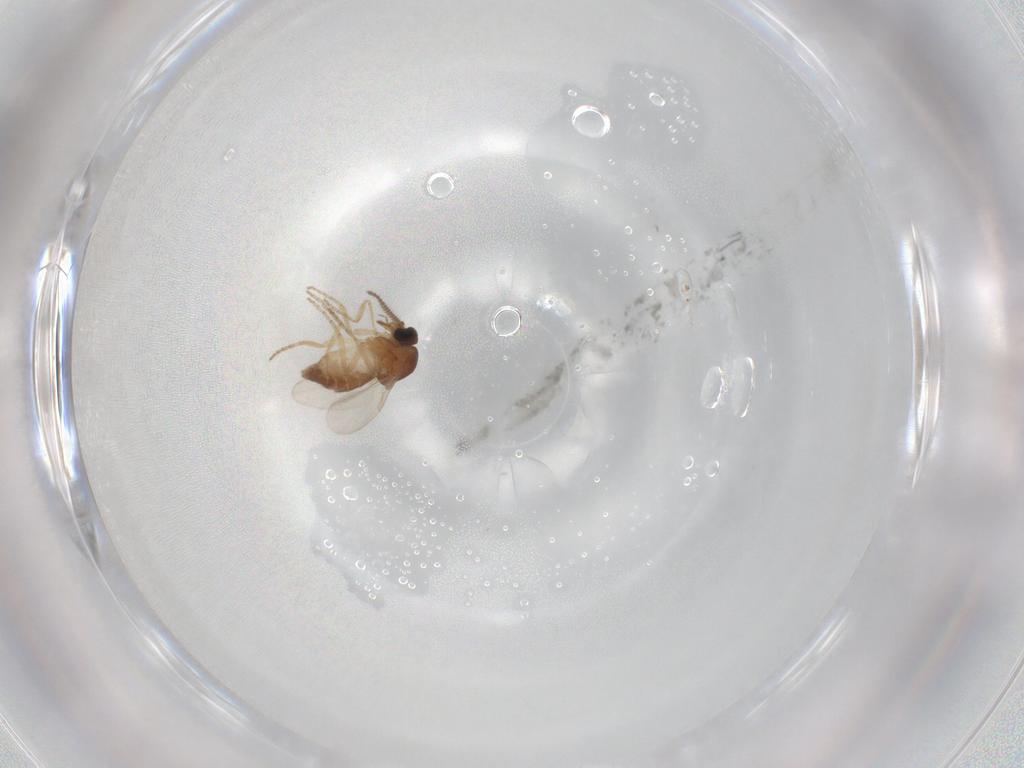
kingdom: Animalia
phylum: Arthropoda
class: Insecta
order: Diptera
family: Ceratopogonidae
